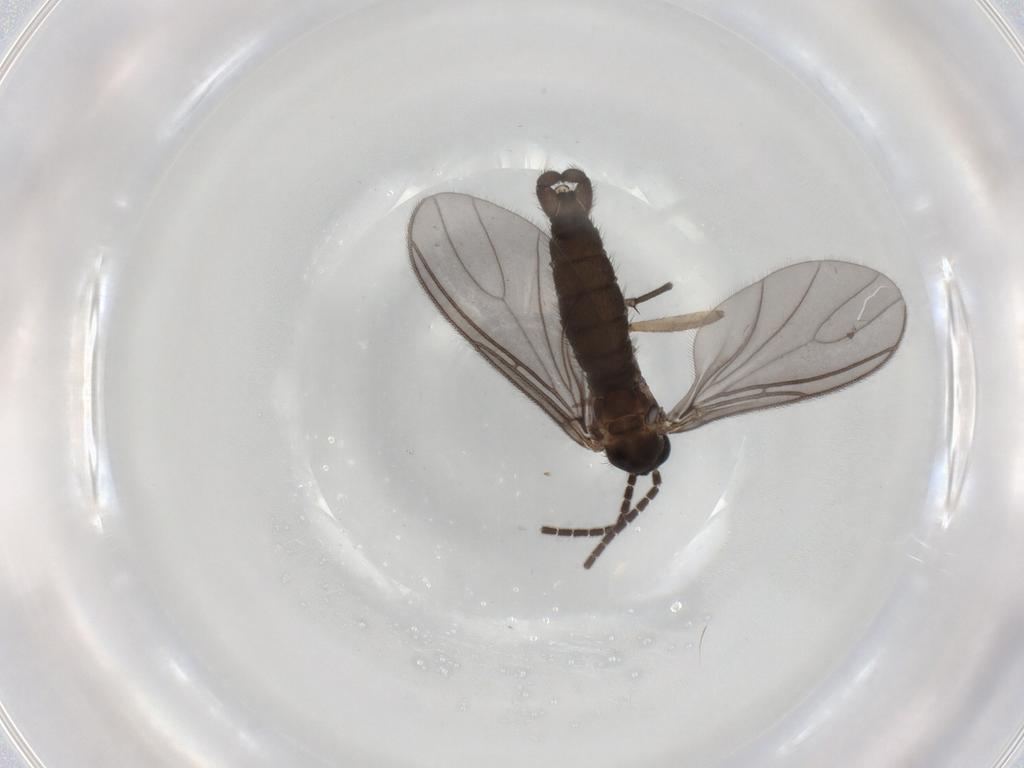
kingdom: Animalia
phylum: Arthropoda
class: Insecta
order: Diptera
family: Sciaridae
